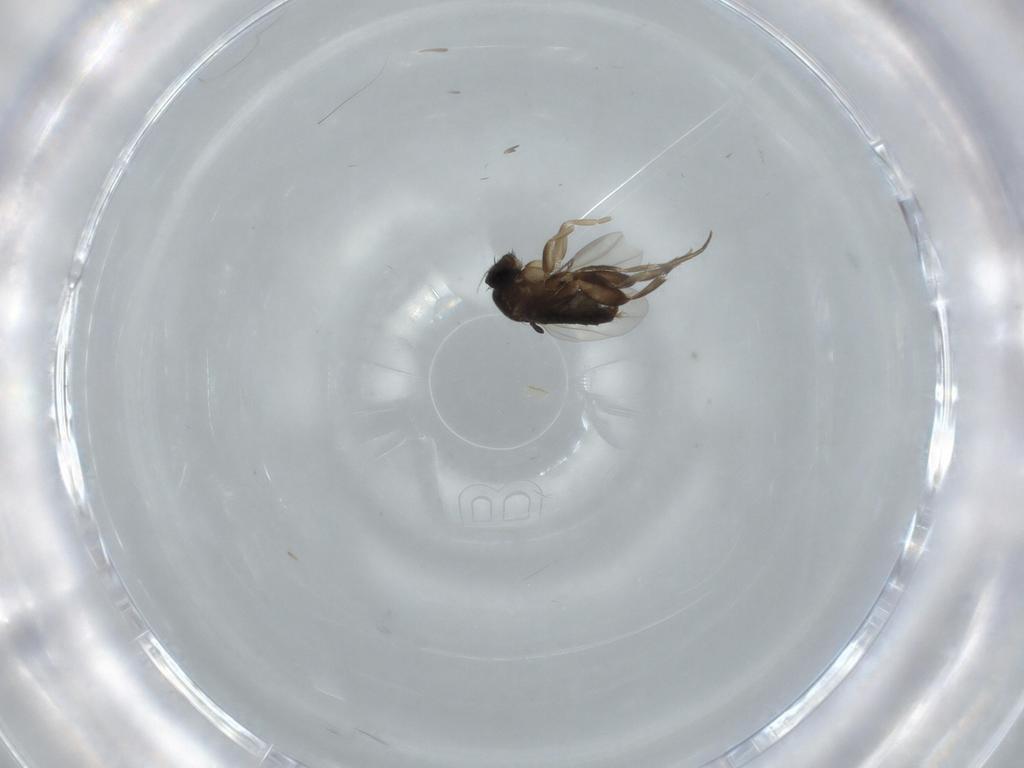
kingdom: Animalia
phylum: Arthropoda
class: Insecta
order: Diptera
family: Phoridae
